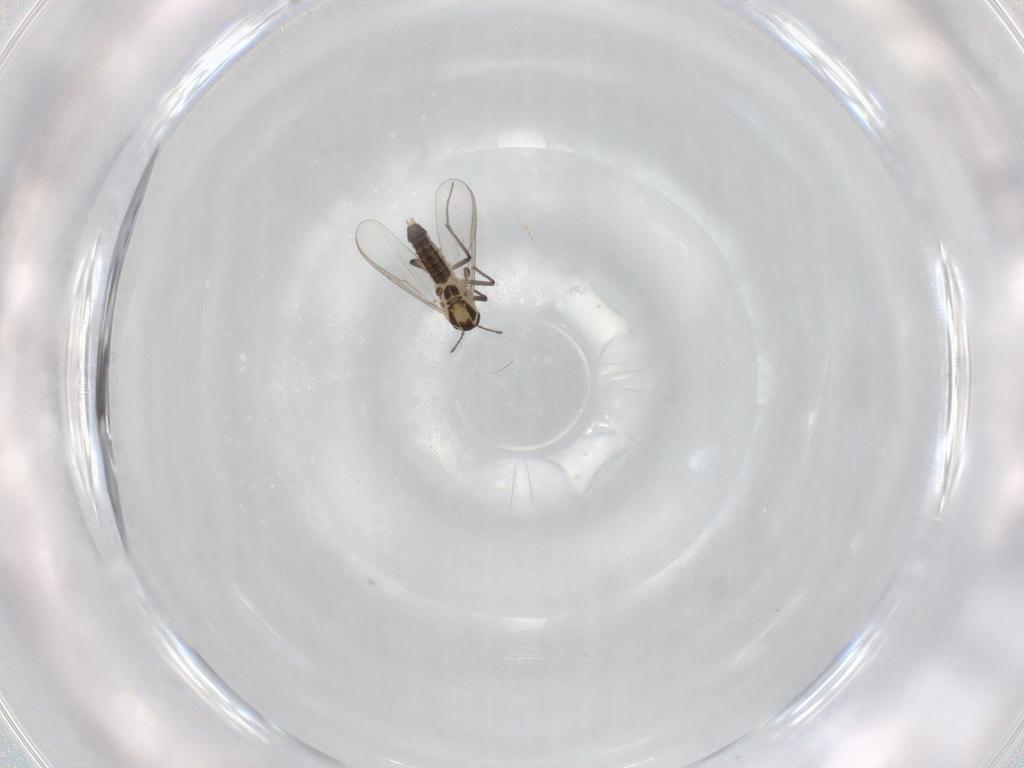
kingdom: Animalia
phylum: Arthropoda
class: Insecta
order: Diptera
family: Chironomidae
